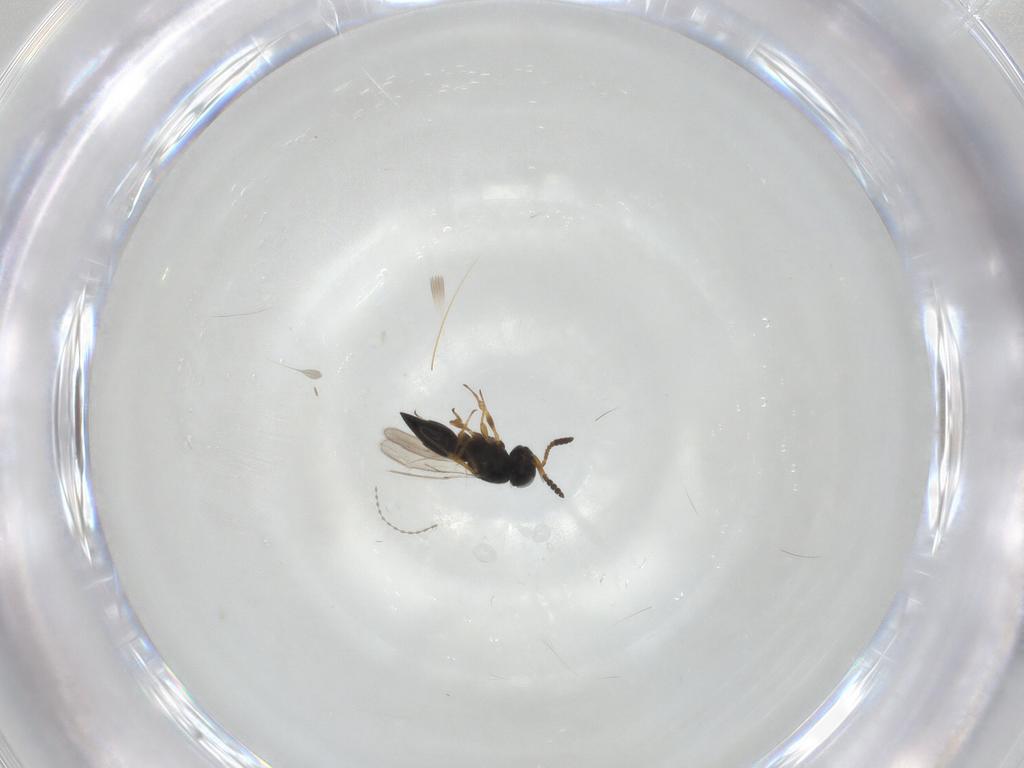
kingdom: Animalia
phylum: Arthropoda
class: Insecta
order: Hymenoptera
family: Scelionidae
